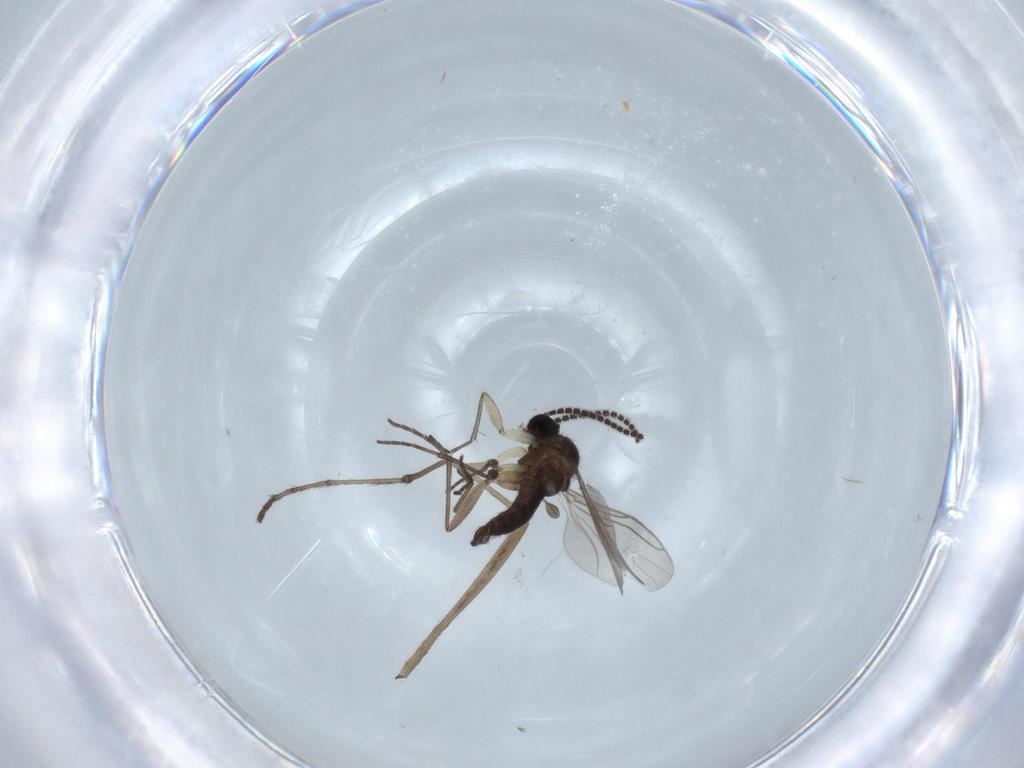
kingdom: Animalia
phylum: Arthropoda
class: Insecta
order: Diptera
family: Limoniidae
